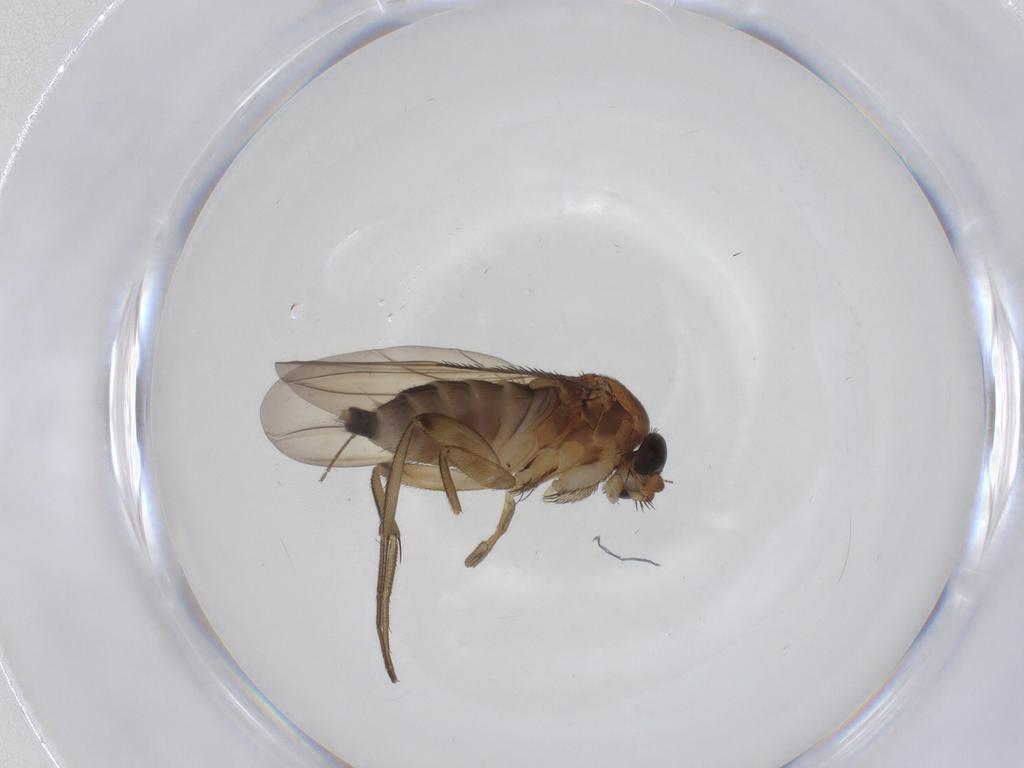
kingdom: Animalia
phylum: Arthropoda
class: Insecta
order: Diptera
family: Phoridae
